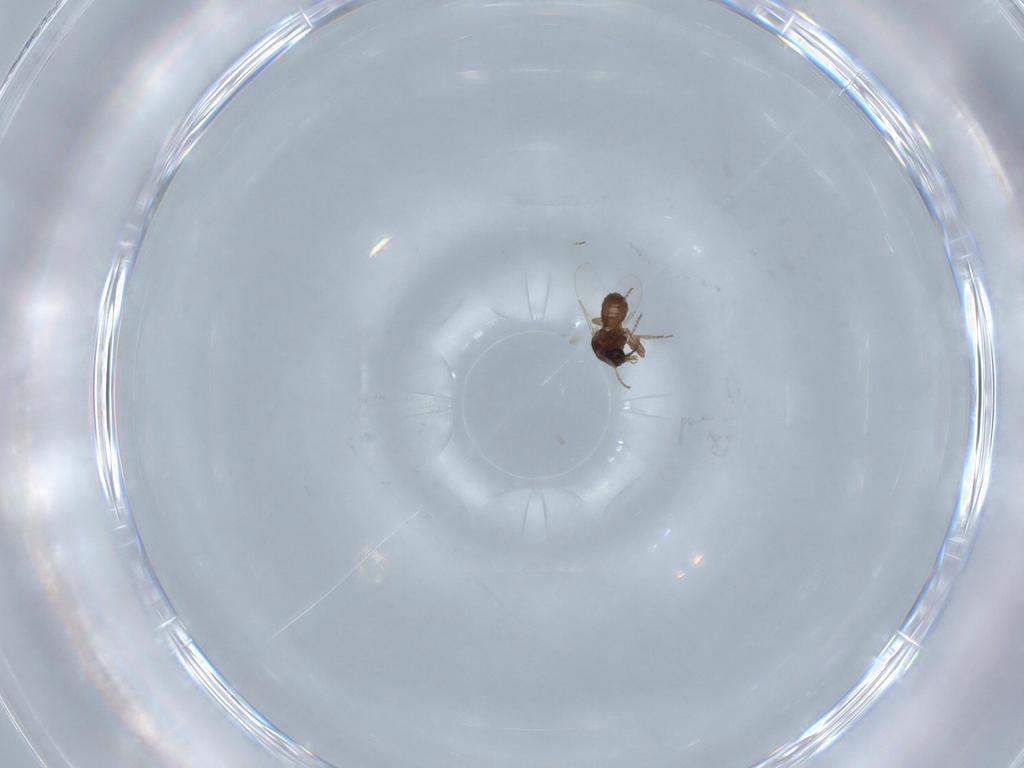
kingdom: Animalia
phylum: Arthropoda
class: Insecta
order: Diptera
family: Ceratopogonidae
